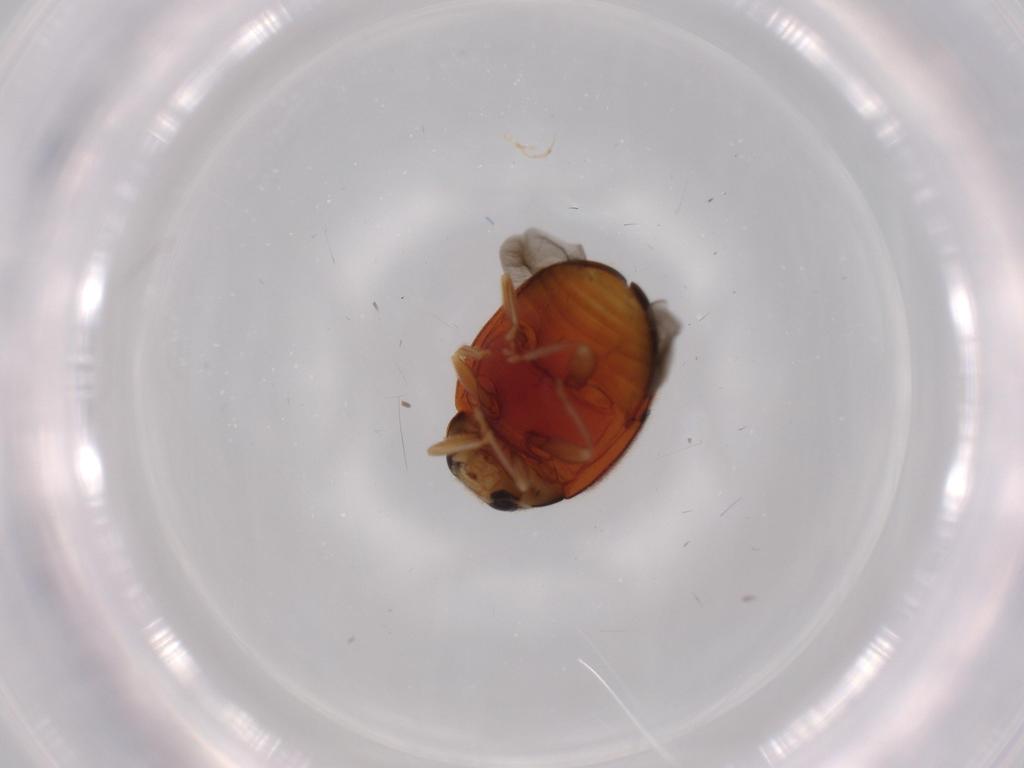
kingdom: Animalia
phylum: Arthropoda
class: Insecta
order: Coleoptera
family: Coccinellidae
